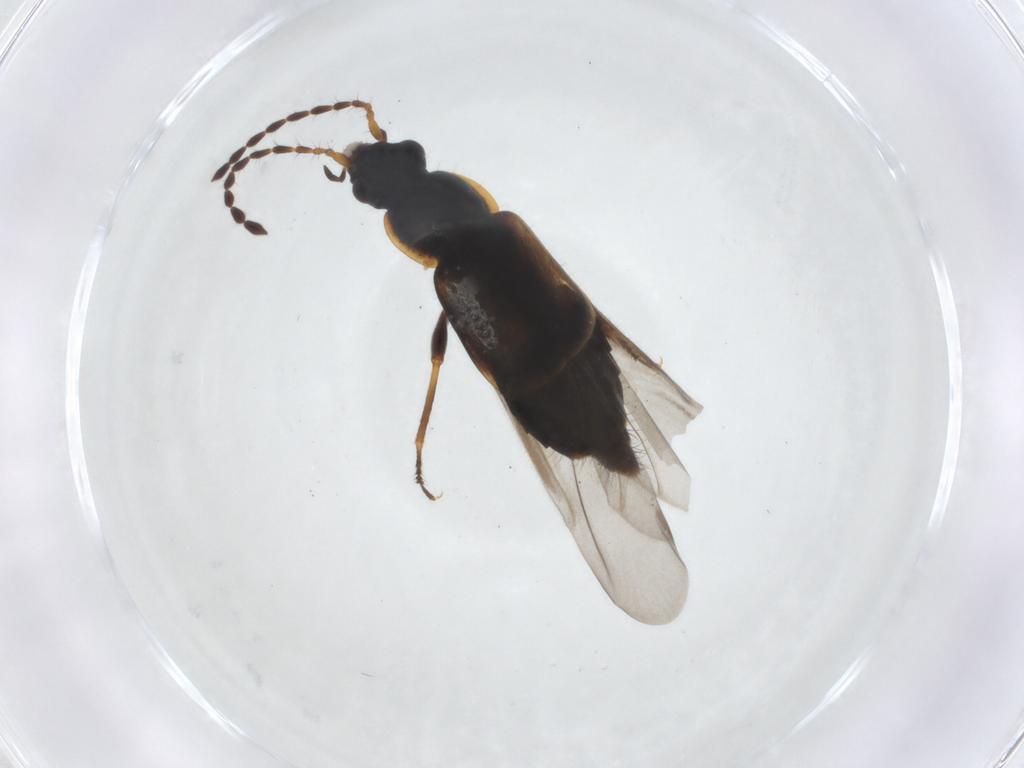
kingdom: Animalia
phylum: Arthropoda
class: Insecta
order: Coleoptera
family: Staphylinidae
